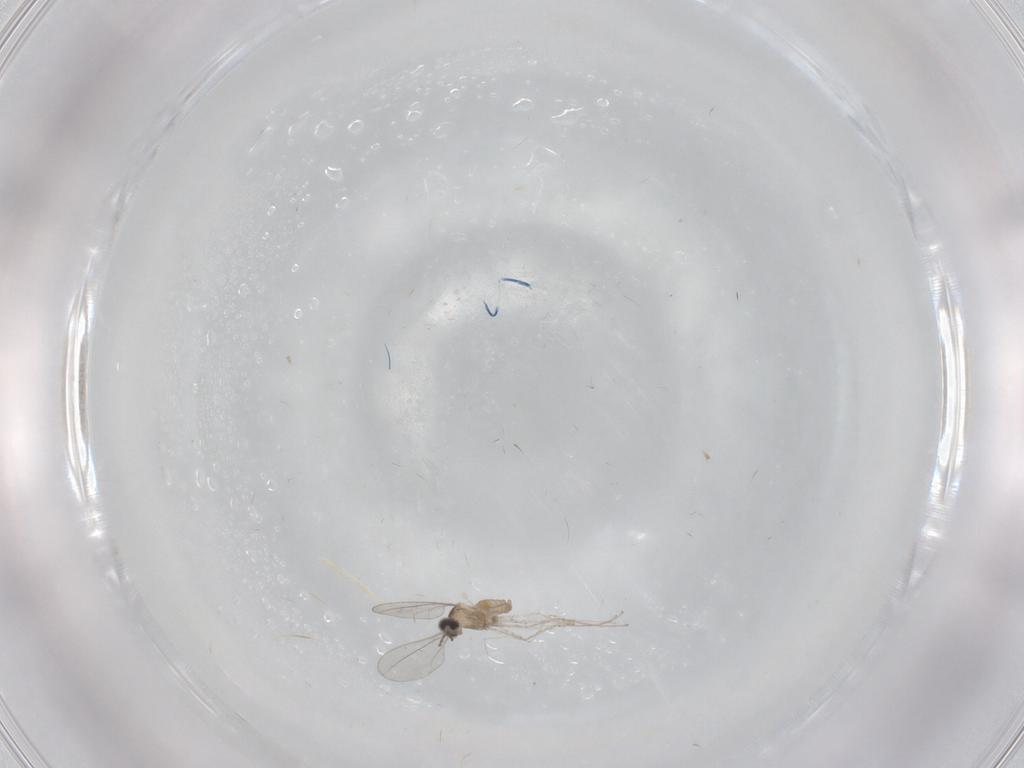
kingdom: Animalia
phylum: Arthropoda
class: Insecta
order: Diptera
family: Cecidomyiidae
